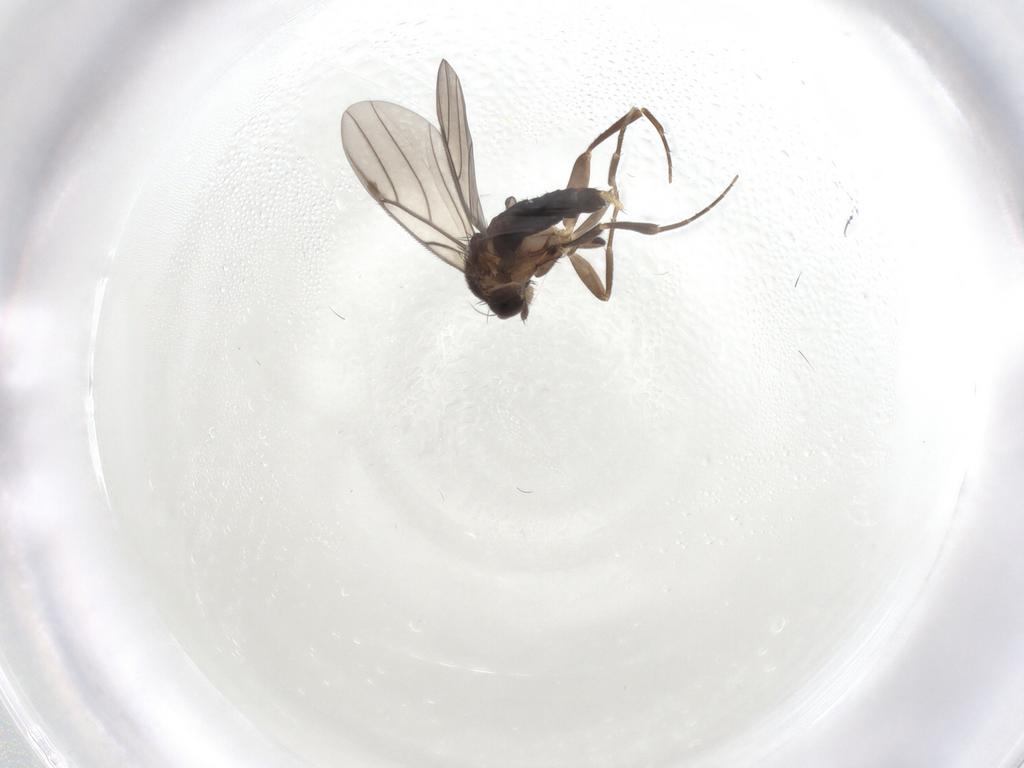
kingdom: Animalia
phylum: Arthropoda
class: Insecta
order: Diptera
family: Phoridae
